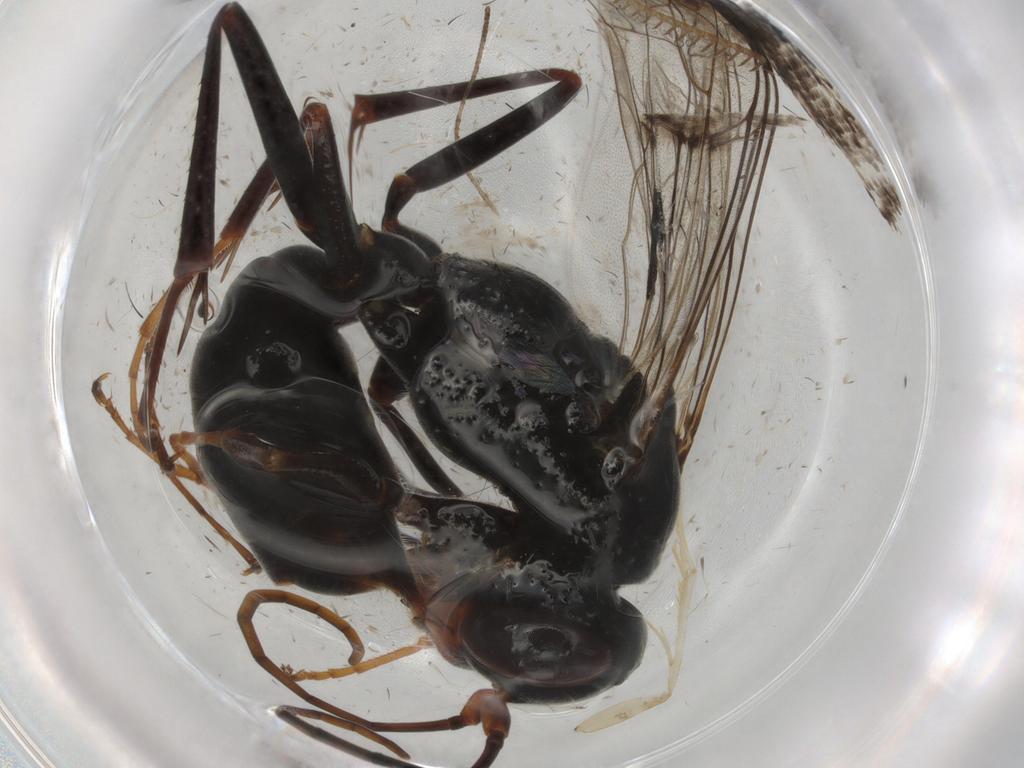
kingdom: Animalia
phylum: Arthropoda
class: Insecta
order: Hymenoptera
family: Pompilidae
